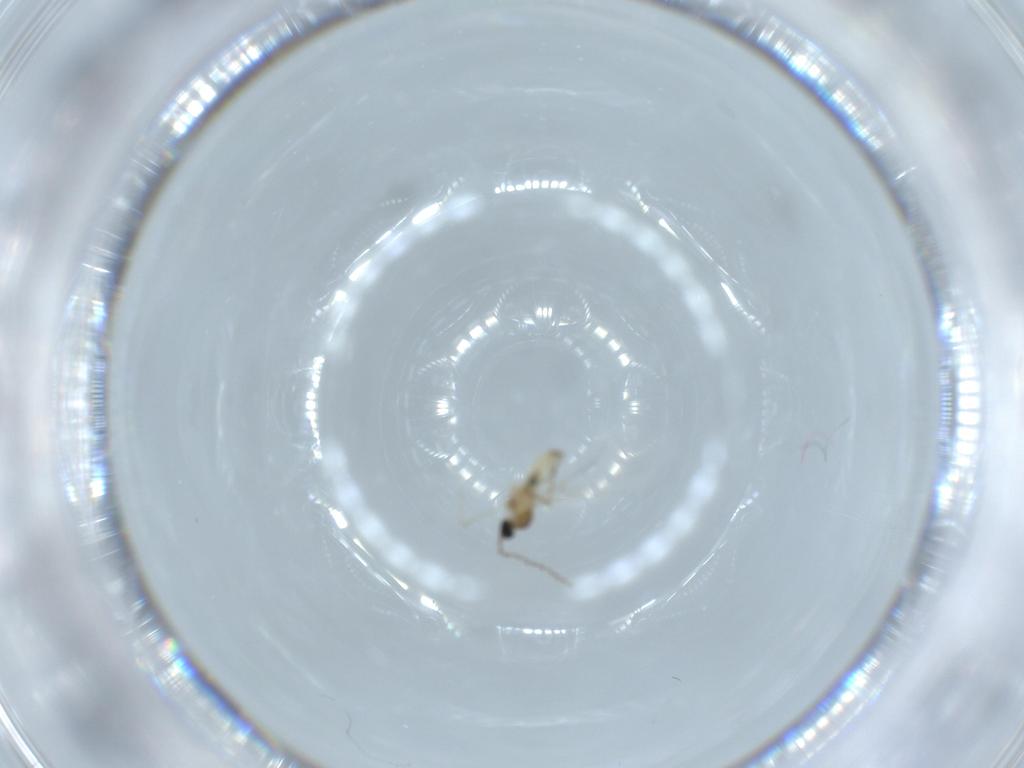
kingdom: Animalia
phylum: Arthropoda
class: Insecta
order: Diptera
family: Cecidomyiidae
